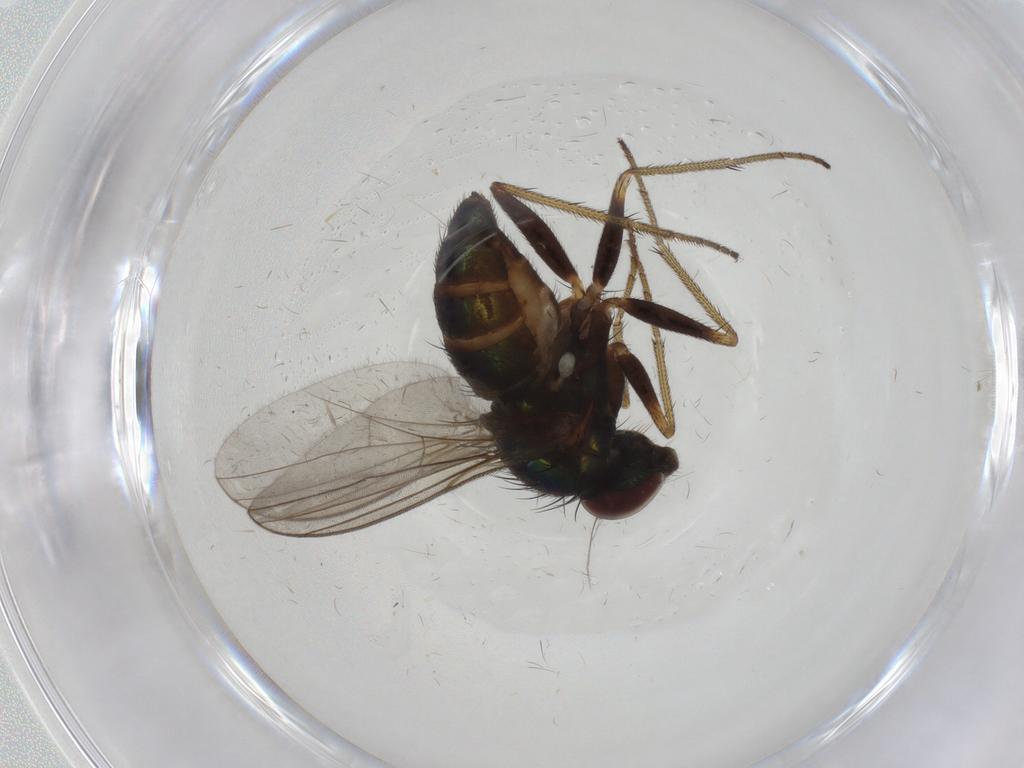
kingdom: Animalia
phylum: Arthropoda
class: Insecta
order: Diptera
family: Chironomidae
